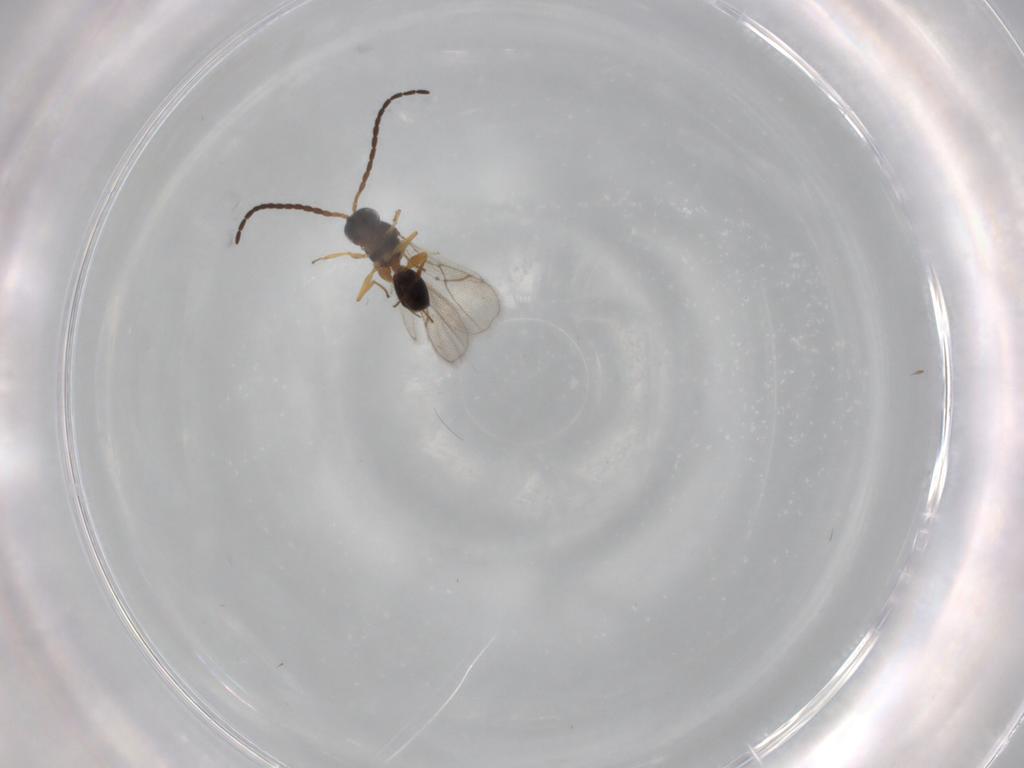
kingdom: Animalia
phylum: Arthropoda
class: Insecta
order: Hymenoptera
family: Figitidae
